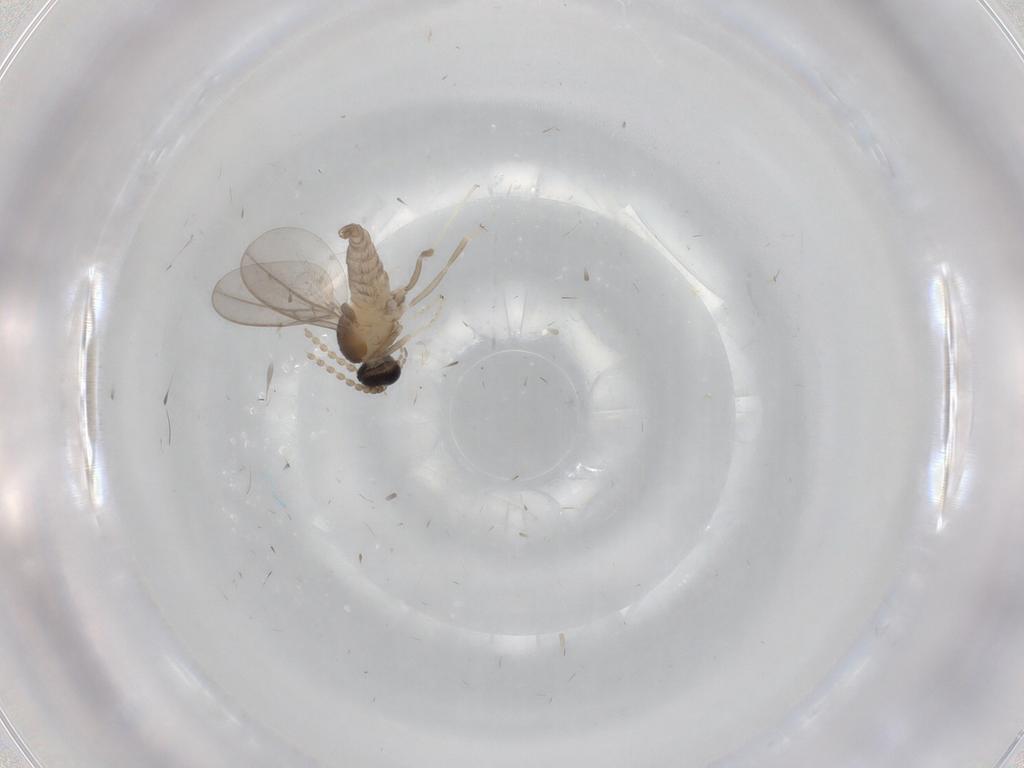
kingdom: Animalia
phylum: Arthropoda
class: Insecta
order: Diptera
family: Cecidomyiidae
